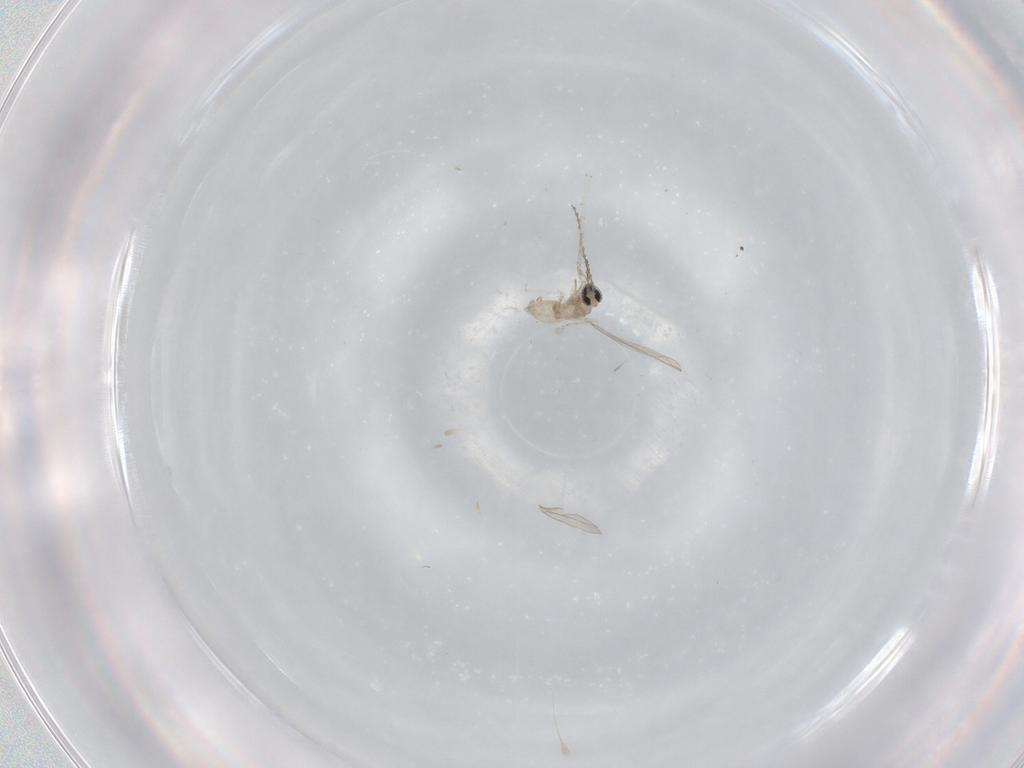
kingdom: Animalia
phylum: Arthropoda
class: Insecta
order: Diptera
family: Cecidomyiidae
